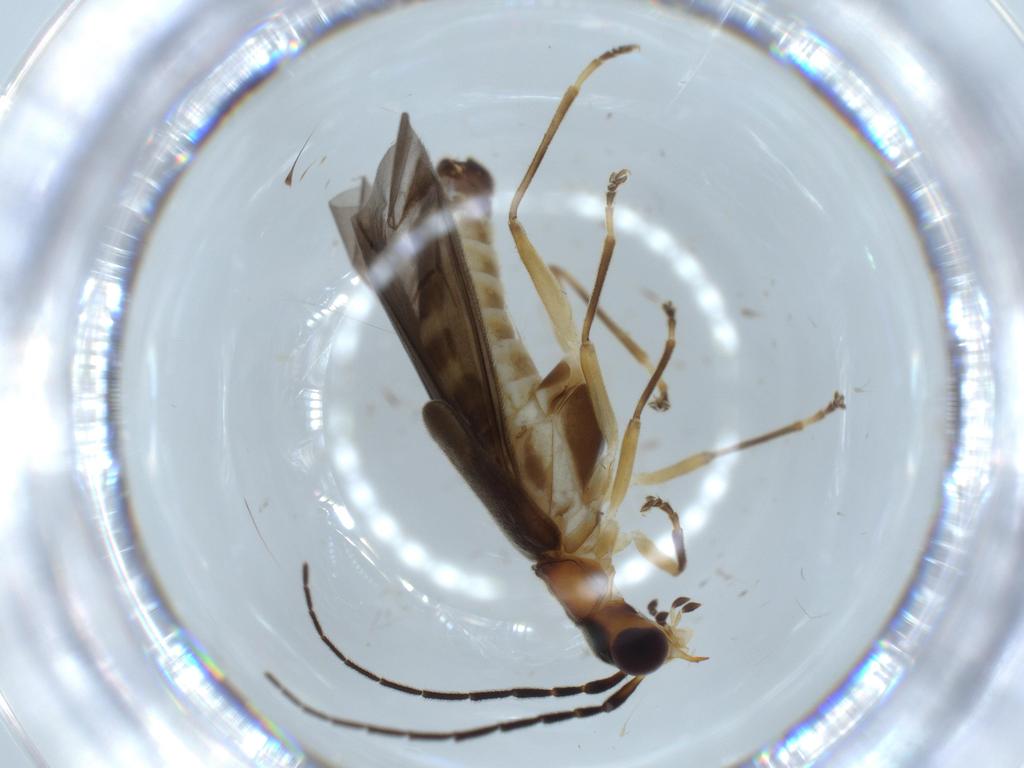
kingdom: Animalia
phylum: Arthropoda
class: Insecta
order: Coleoptera
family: Cantharidae
